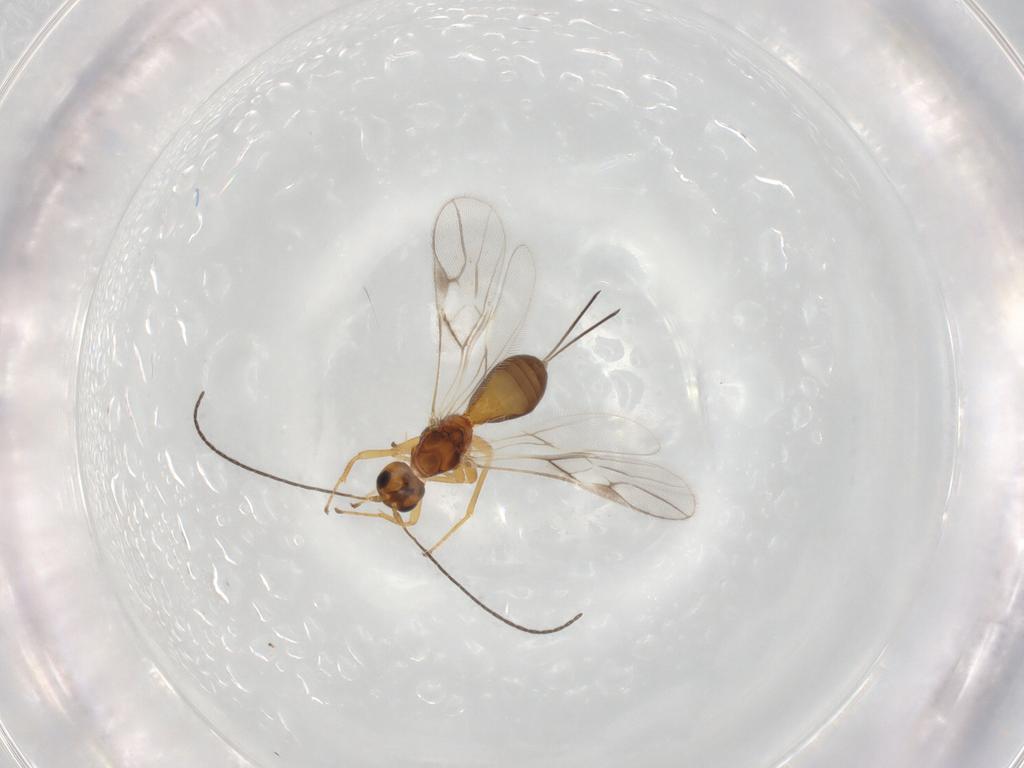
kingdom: Animalia
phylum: Arthropoda
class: Insecta
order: Hymenoptera
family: Braconidae
